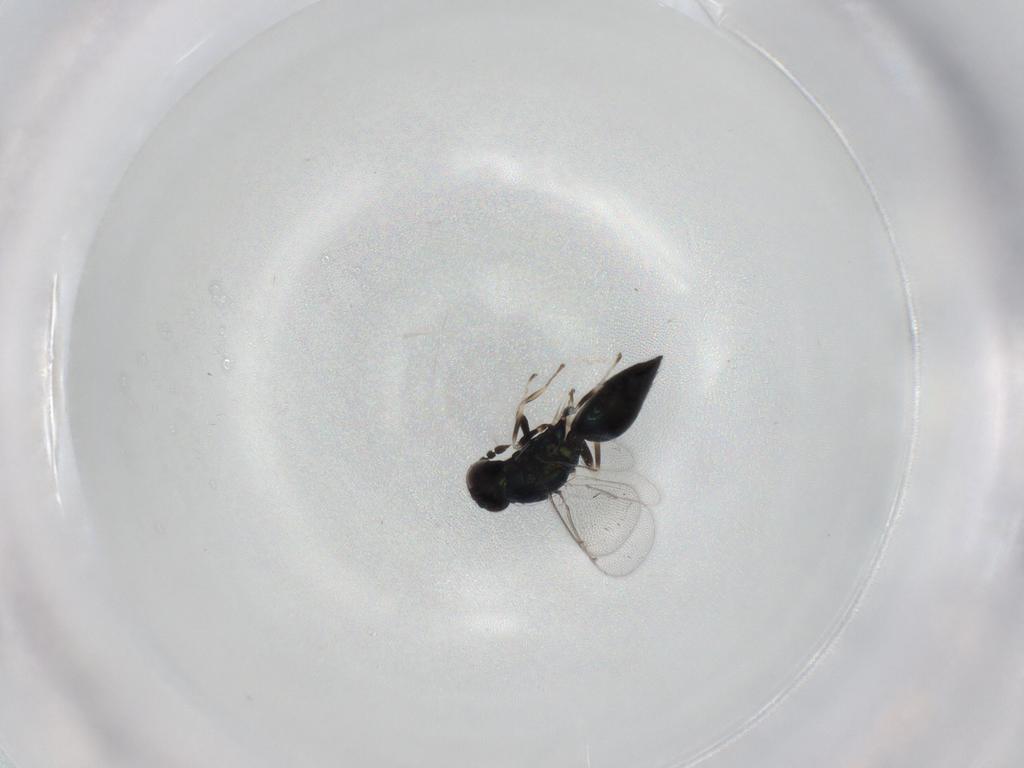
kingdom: Animalia
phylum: Arthropoda
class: Insecta
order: Hymenoptera
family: Eulophidae
